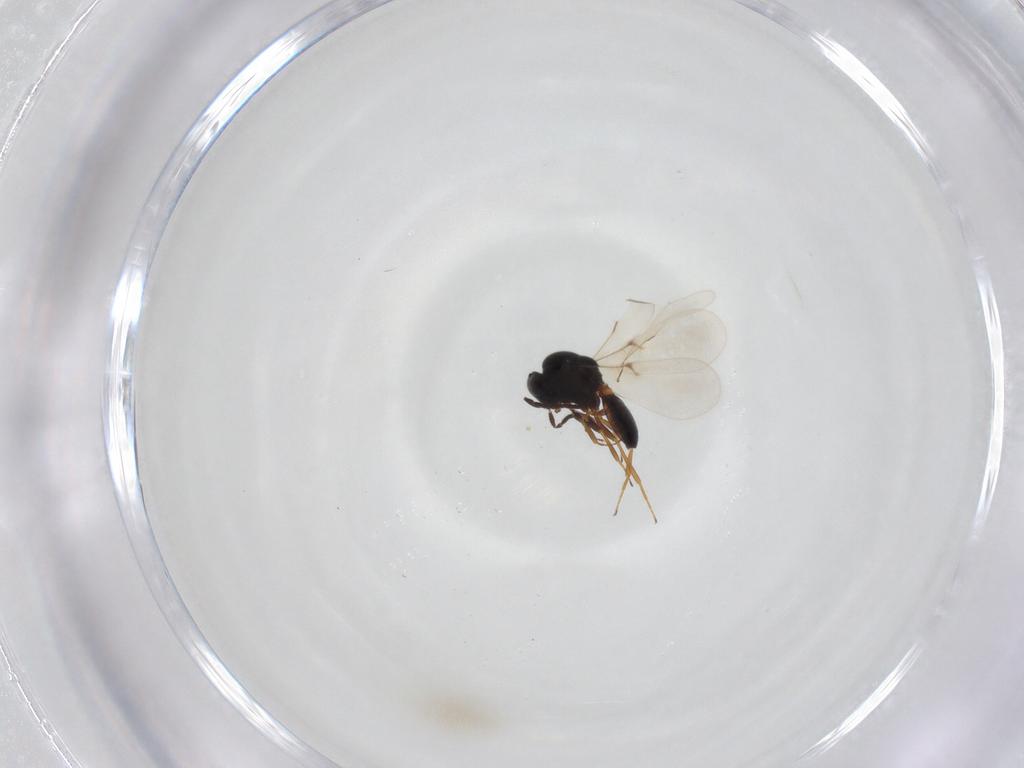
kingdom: Animalia
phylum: Arthropoda
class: Insecta
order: Hymenoptera
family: Scelionidae
